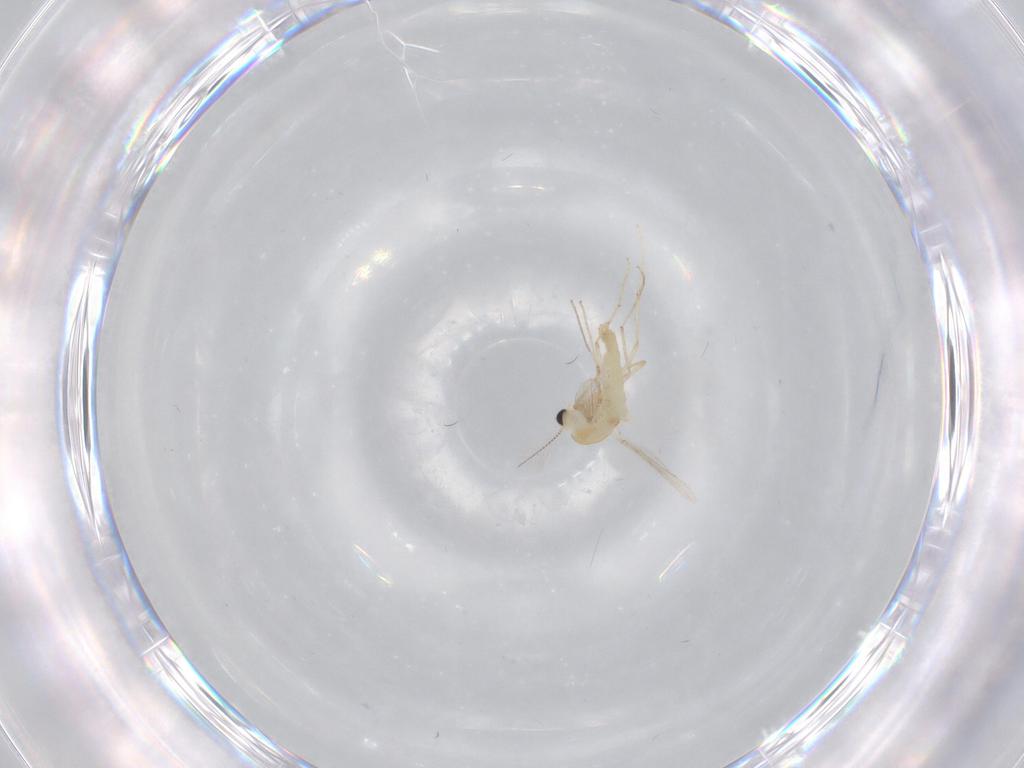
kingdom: Animalia
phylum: Arthropoda
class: Insecta
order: Diptera
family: Chironomidae
